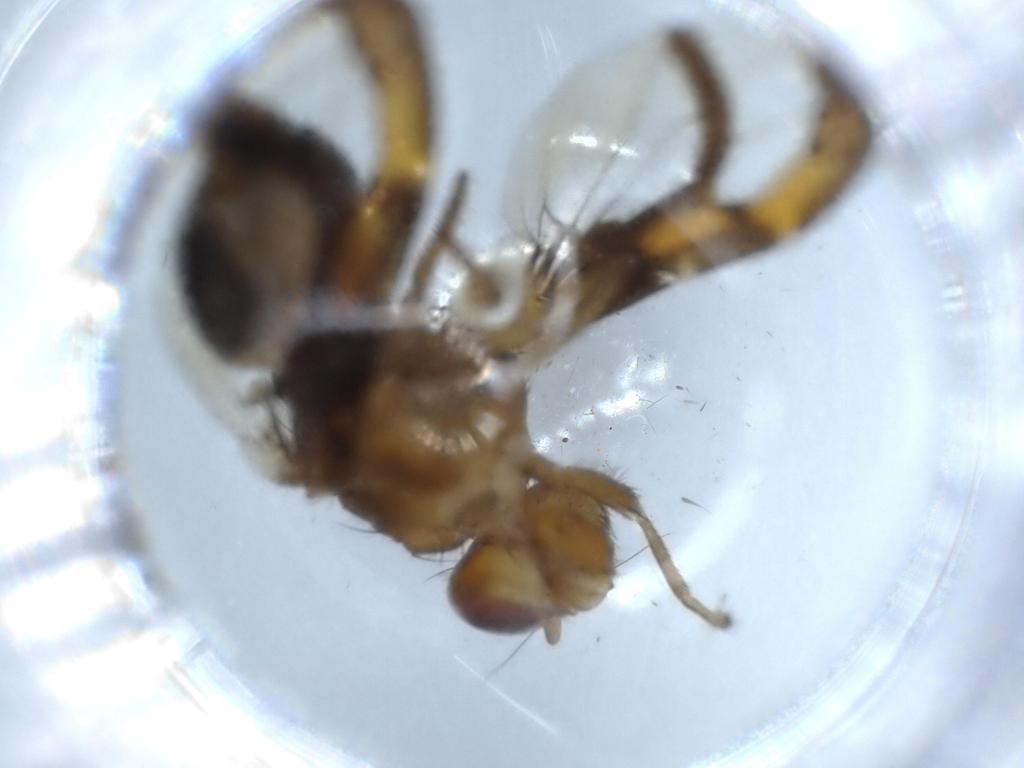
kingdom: Animalia
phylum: Arthropoda
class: Insecta
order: Diptera
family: Ulidiidae
